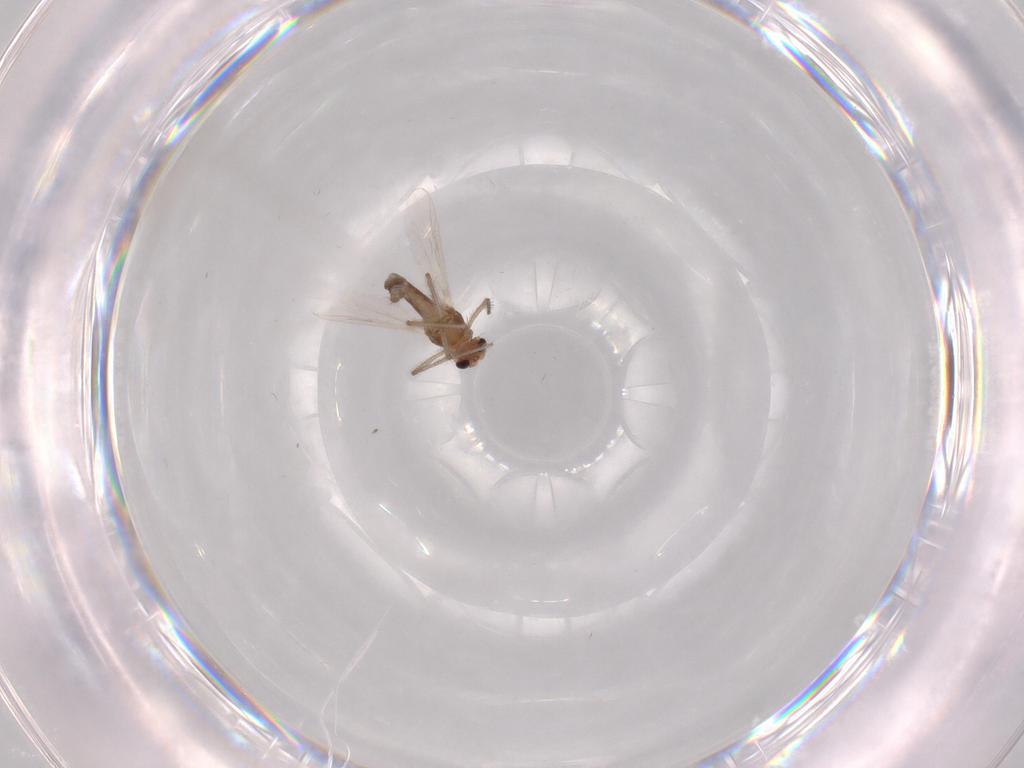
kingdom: Animalia
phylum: Arthropoda
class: Insecta
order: Diptera
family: Chironomidae
